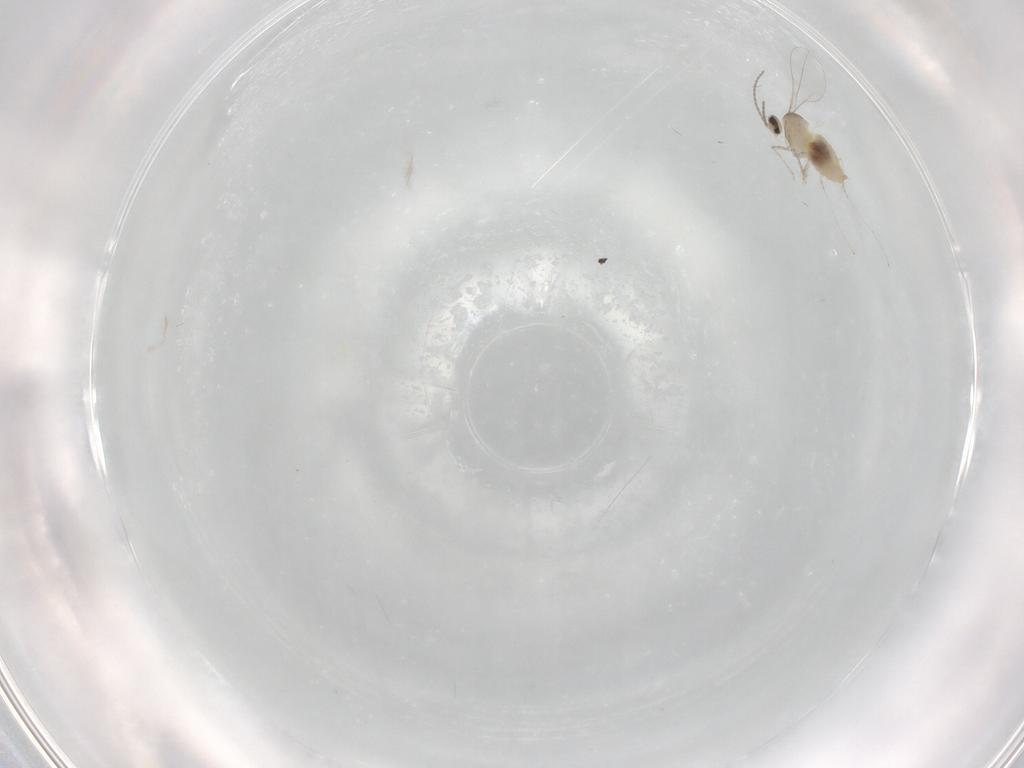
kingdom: Animalia
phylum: Arthropoda
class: Insecta
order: Diptera
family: Cecidomyiidae
